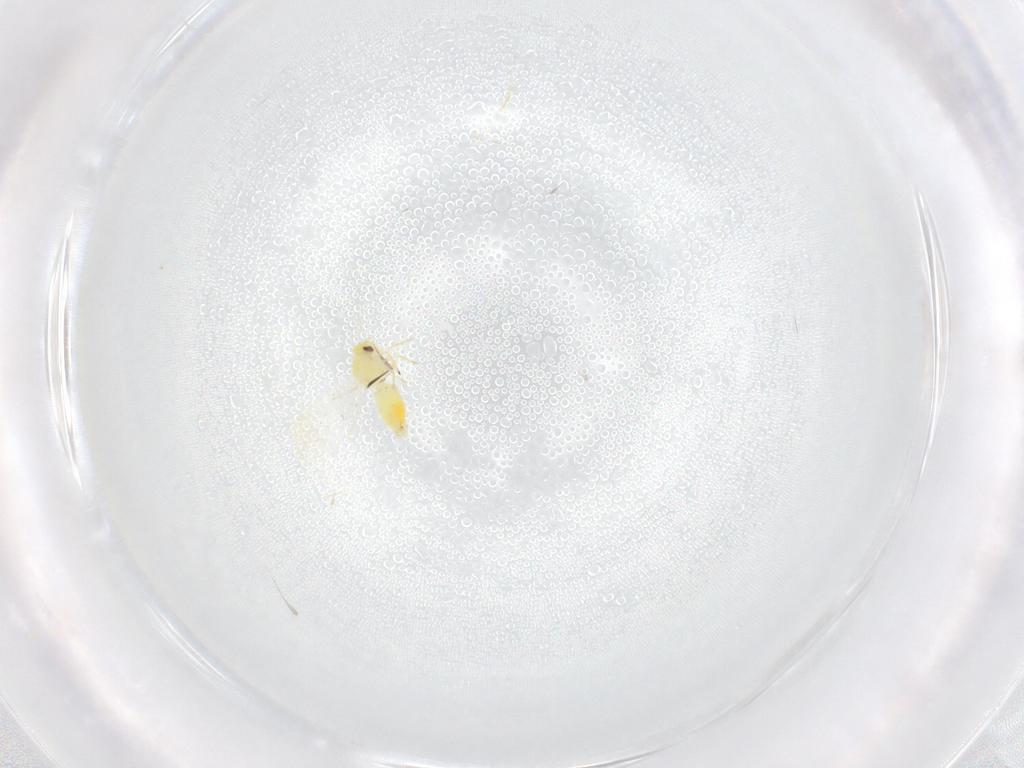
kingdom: Animalia
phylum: Arthropoda
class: Insecta
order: Hemiptera
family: Aleyrodidae
